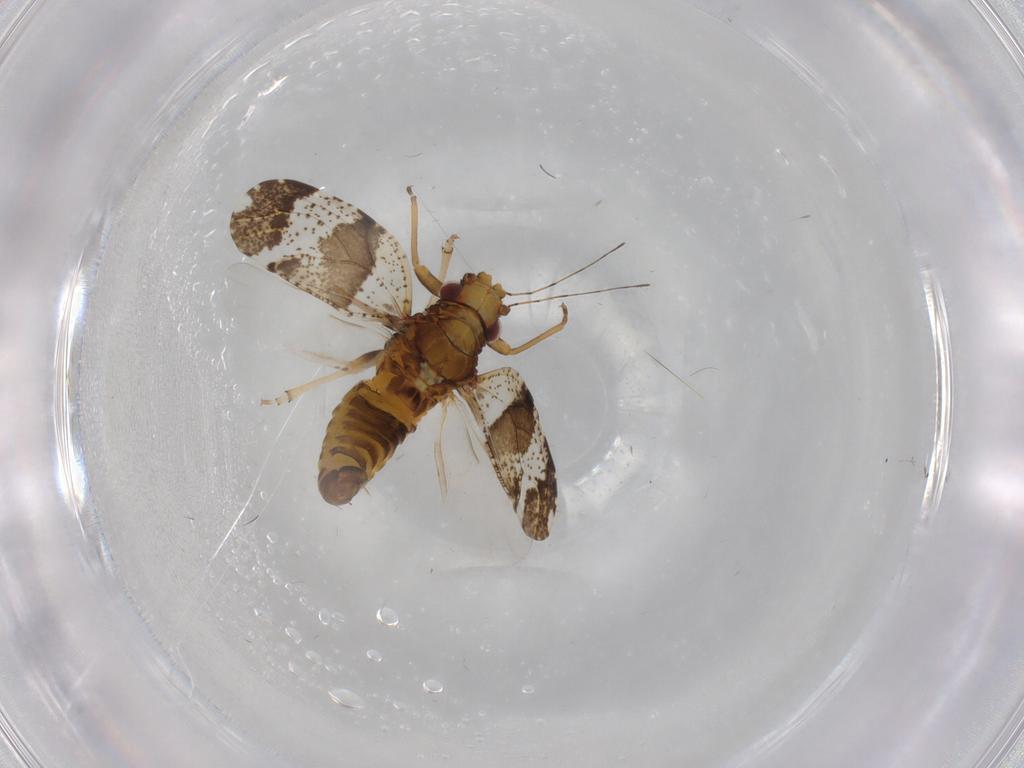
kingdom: Animalia
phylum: Arthropoda
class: Insecta
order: Hemiptera
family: Psyllidae
